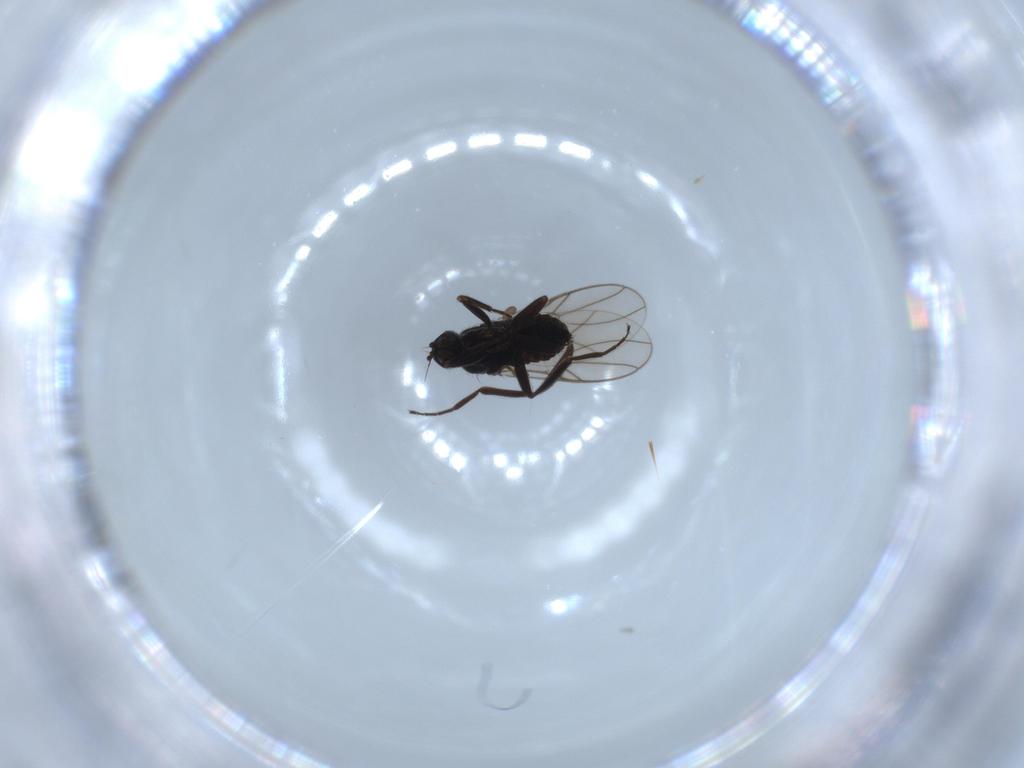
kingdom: Animalia
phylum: Arthropoda
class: Insecta
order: Diptera
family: Hybotidae
